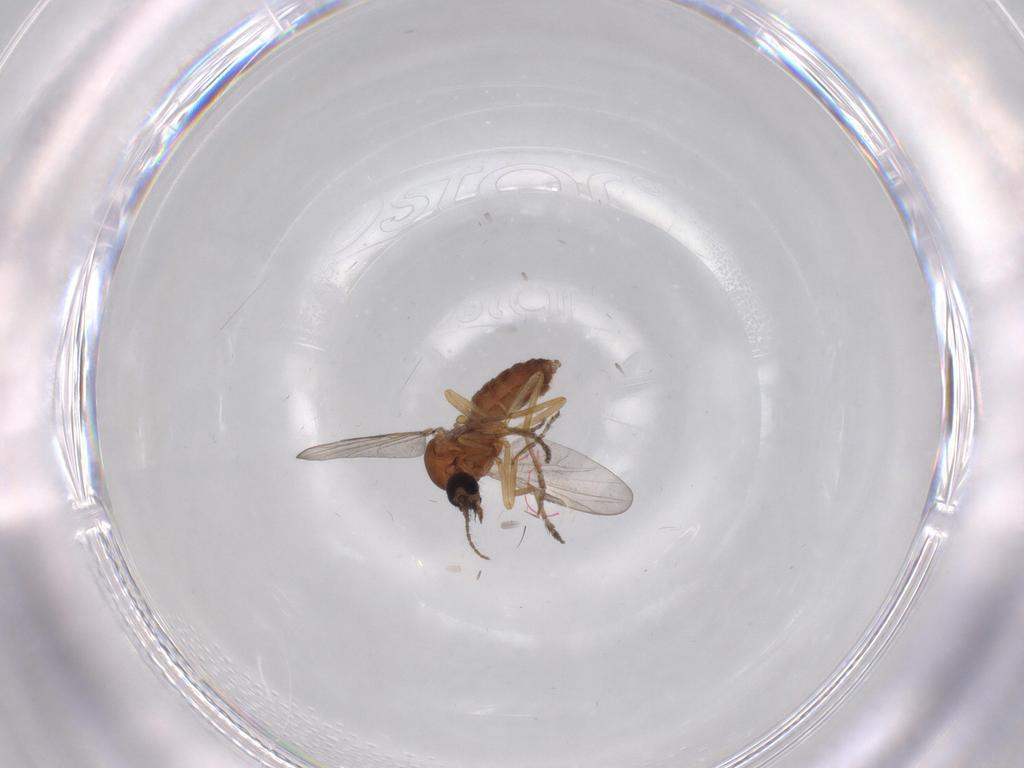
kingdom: Animalia
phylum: Arthropoda
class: Insecta
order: Diptera
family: Ceratopogonidae
